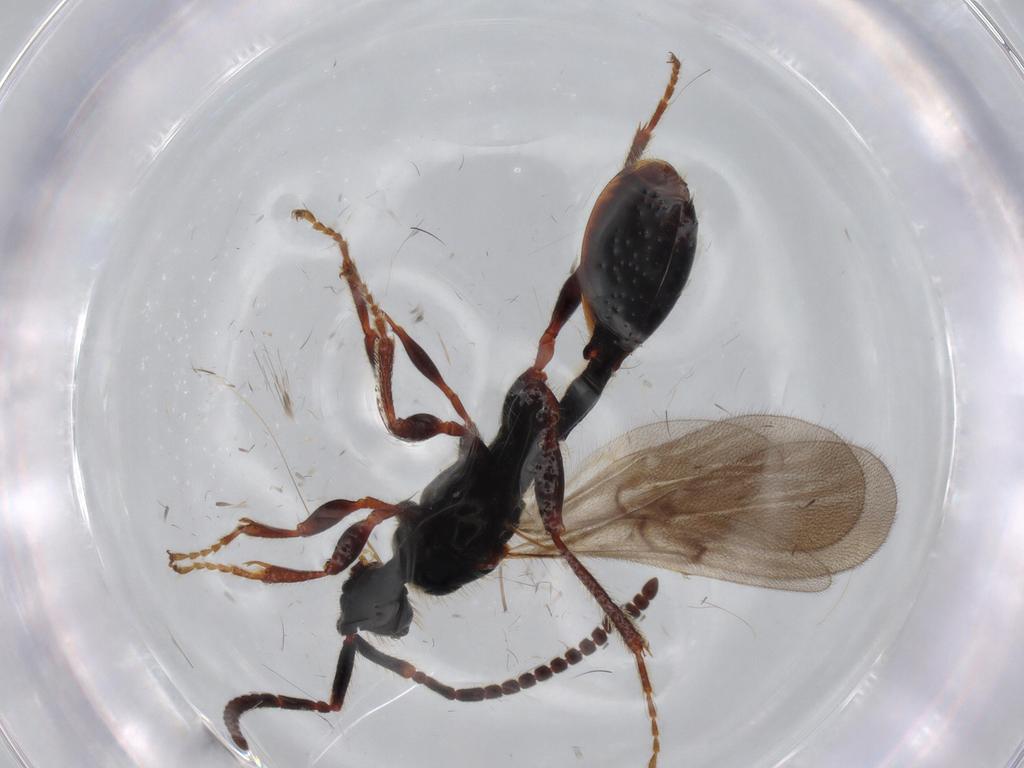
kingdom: Animalia
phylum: Arthropoda
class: Insecta
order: Hymenoptera
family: Diapriidae
